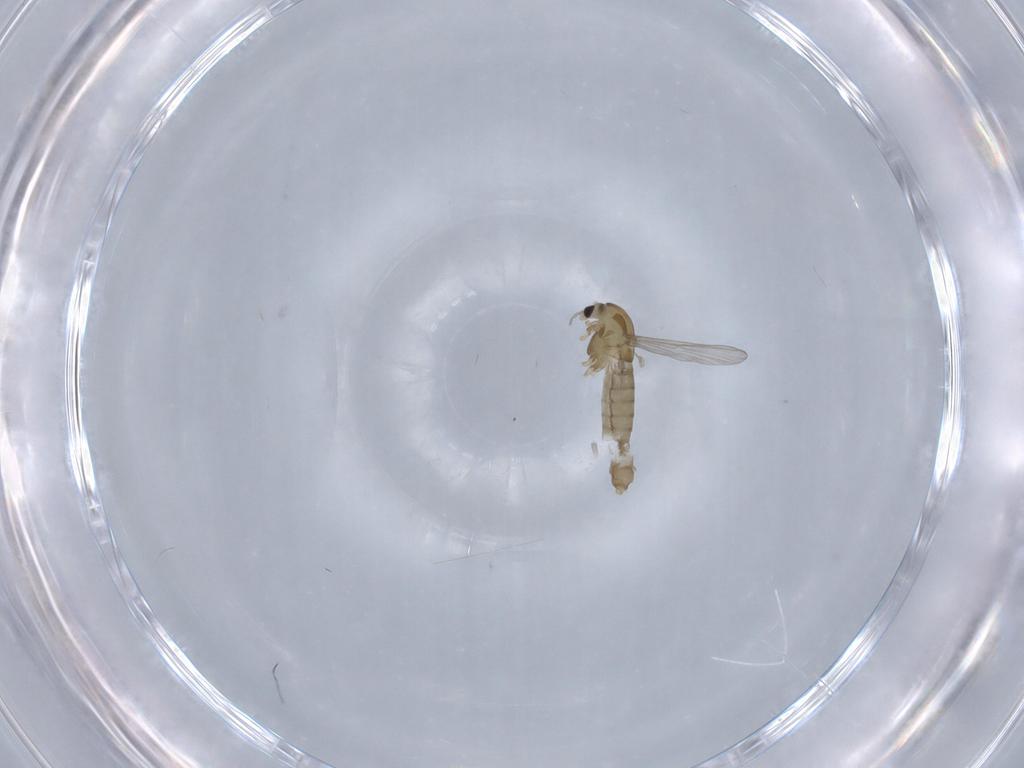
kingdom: Animalia
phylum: Arthropoda
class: Insecta
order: Diptera
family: Chironomidae
